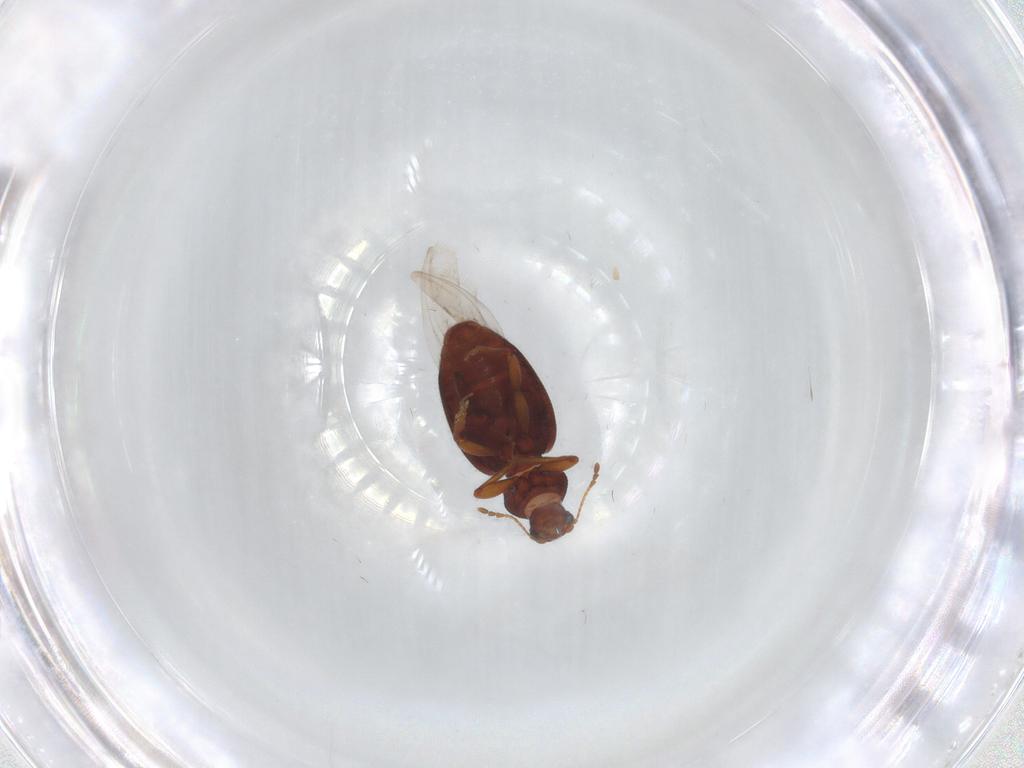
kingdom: Animalia
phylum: Arthropoda
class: Insecta
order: Coleoptera
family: Latridiidae
